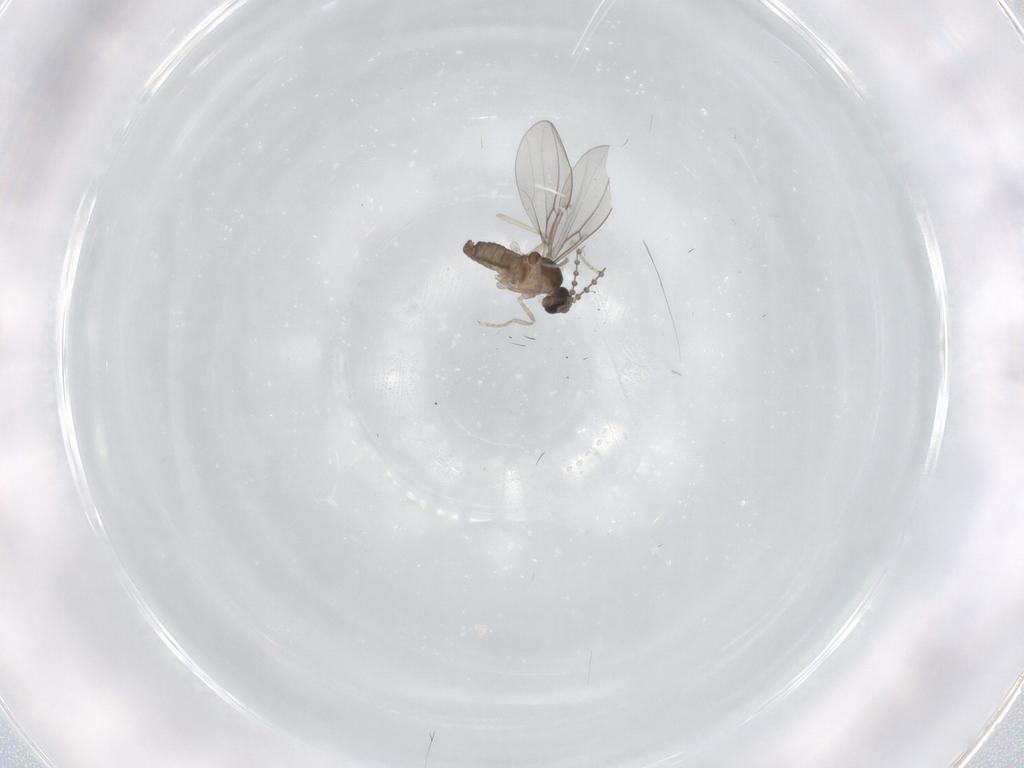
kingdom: Animalia
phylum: Arthropoda
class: Insecta
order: Diptera
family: Cecidomyiidae
